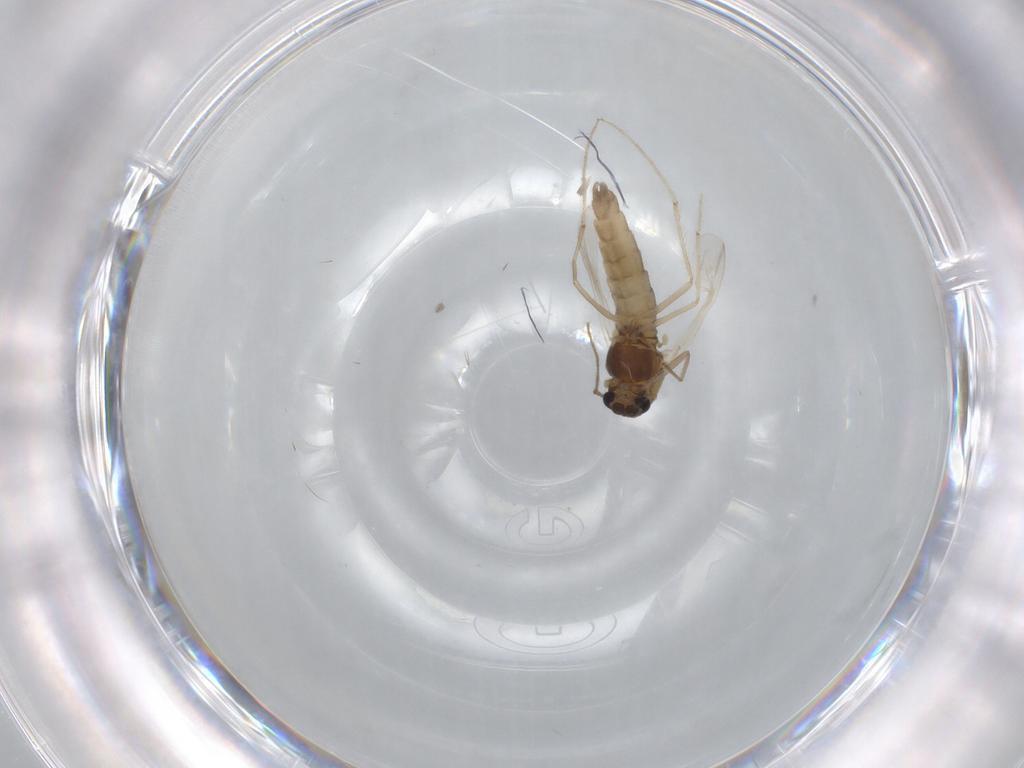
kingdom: Animalia
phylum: Arthropoda
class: Insecta
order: Diptera
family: Chironomidae
